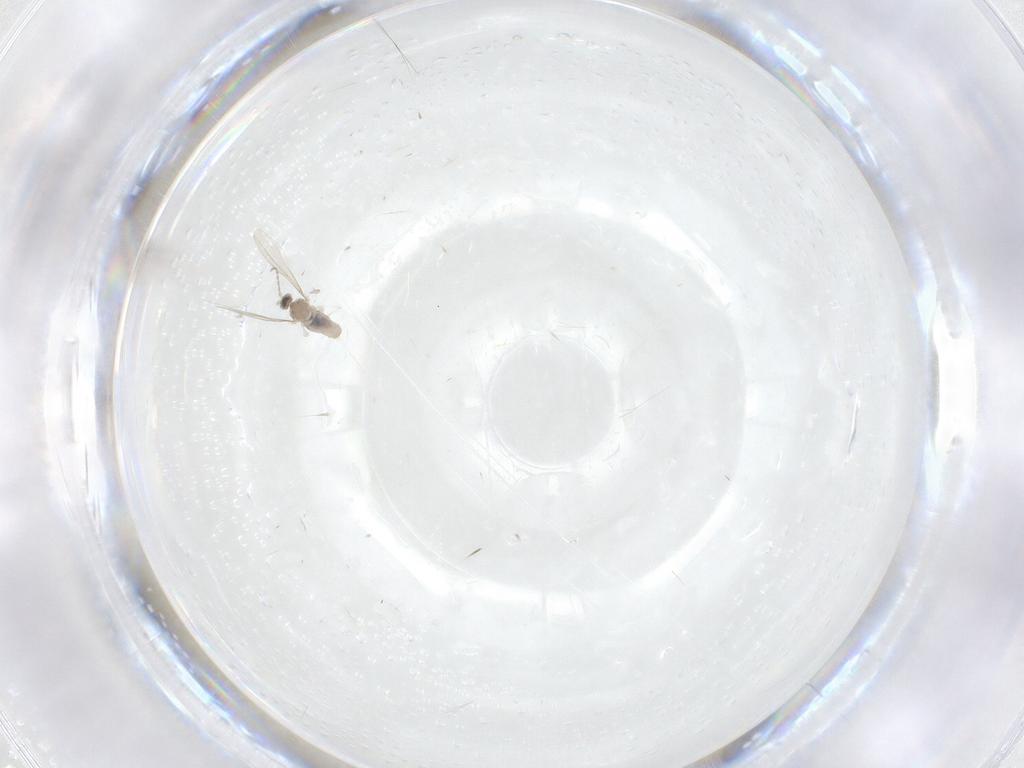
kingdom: Animalia
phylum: Arthropoda
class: Insecta
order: Diptera
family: Cecidomyiidae
